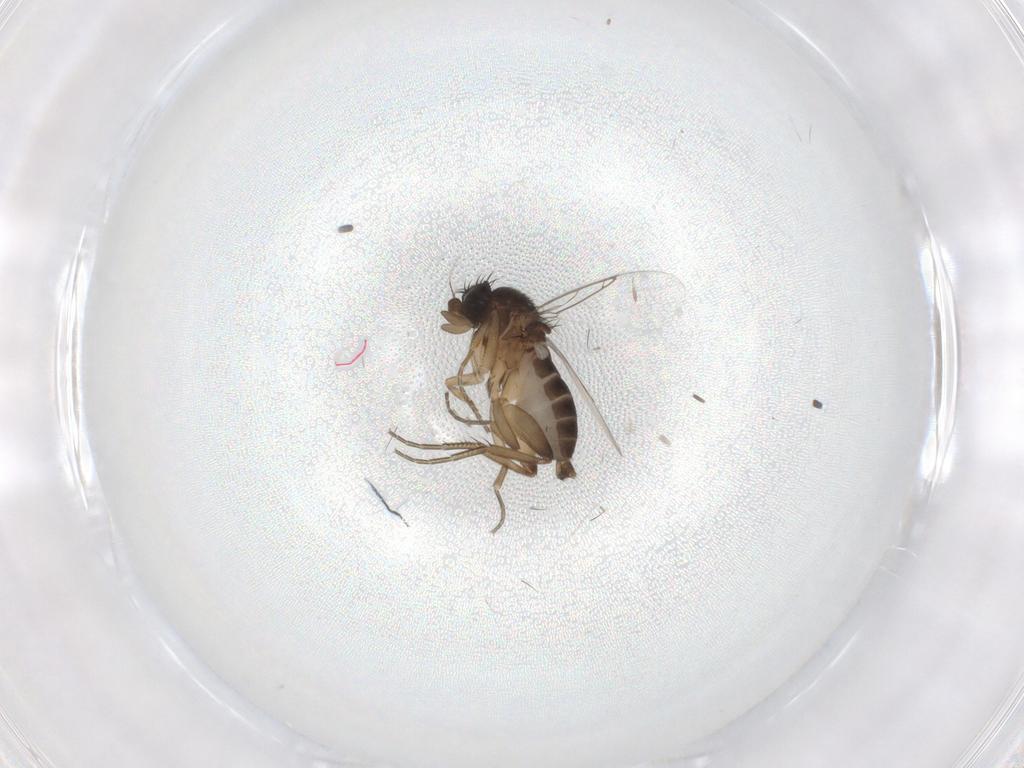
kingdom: Animalia
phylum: Arthropoda
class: Insecta
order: Diptera
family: Phoridae
